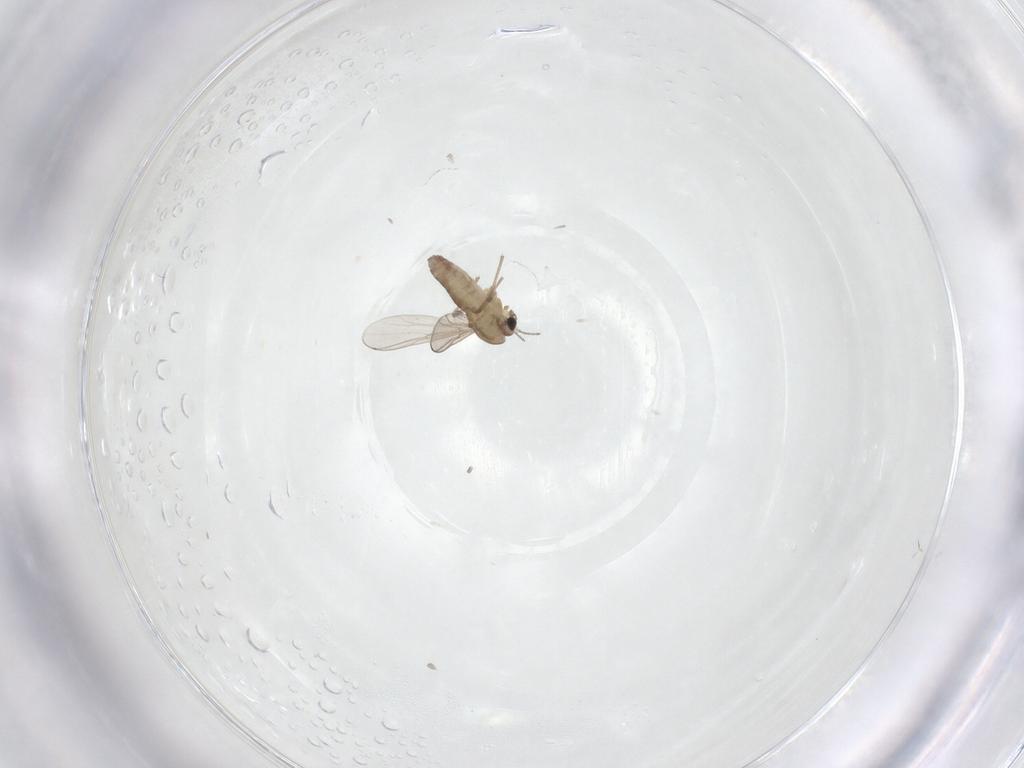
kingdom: Animalia
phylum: Arthropoda
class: Insecta
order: Diptera
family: Chironomidae
